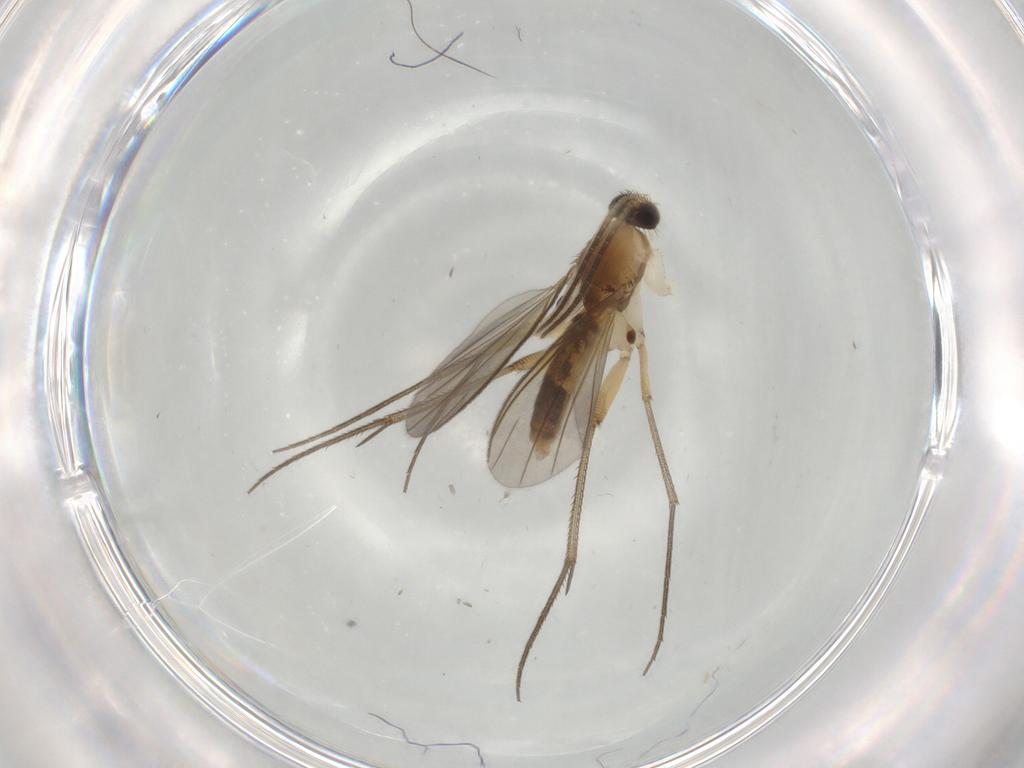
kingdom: Animalia
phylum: Arthropoda
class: Insecta
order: Diptera
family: Mycetophilidae
